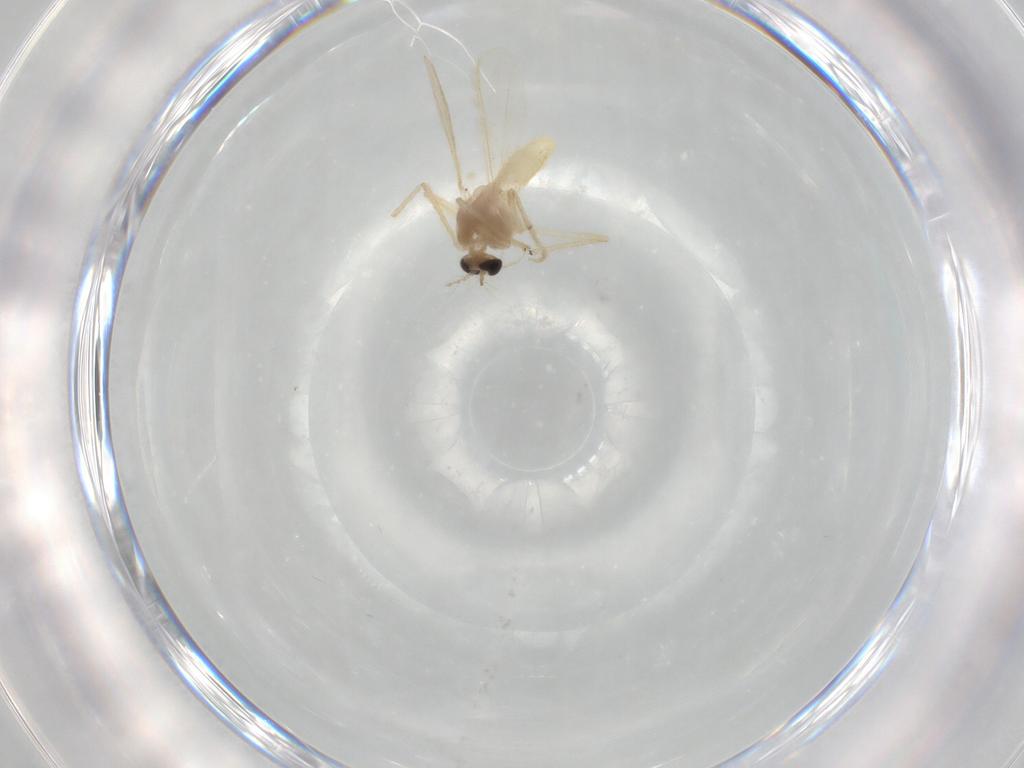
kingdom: Animalia
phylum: Arthropoda
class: Insecta
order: Diptera
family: Chironomidae
